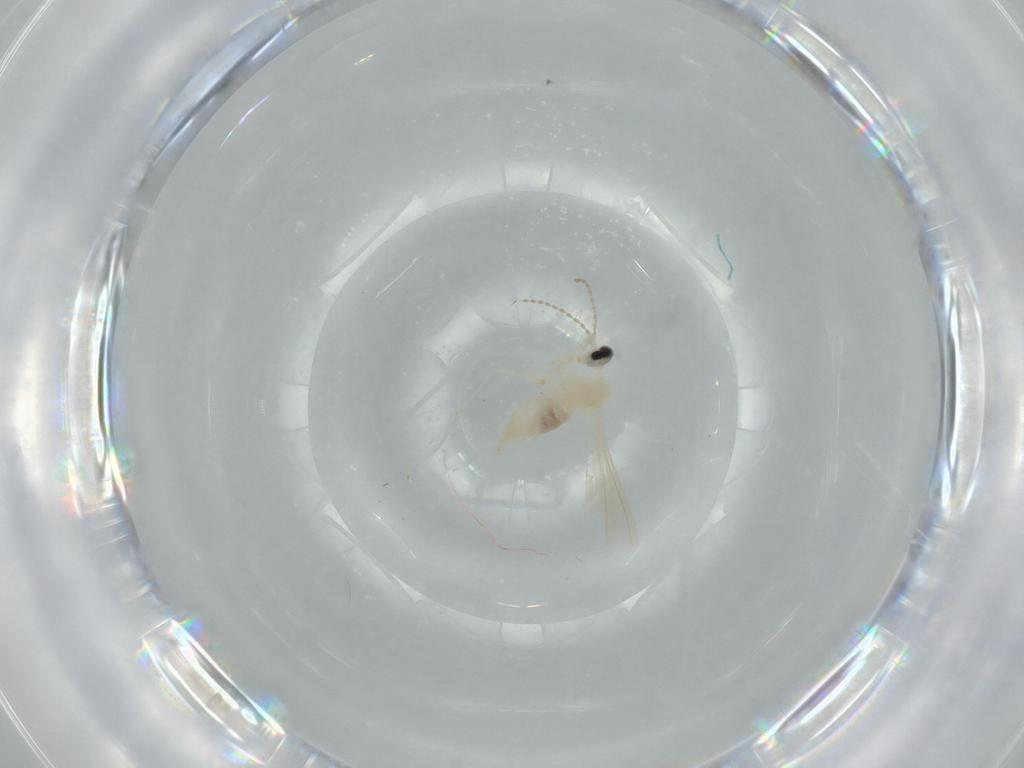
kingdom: Animalia
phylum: Arthropoda
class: Insecta
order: Diptera
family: Cecidomyiidae
